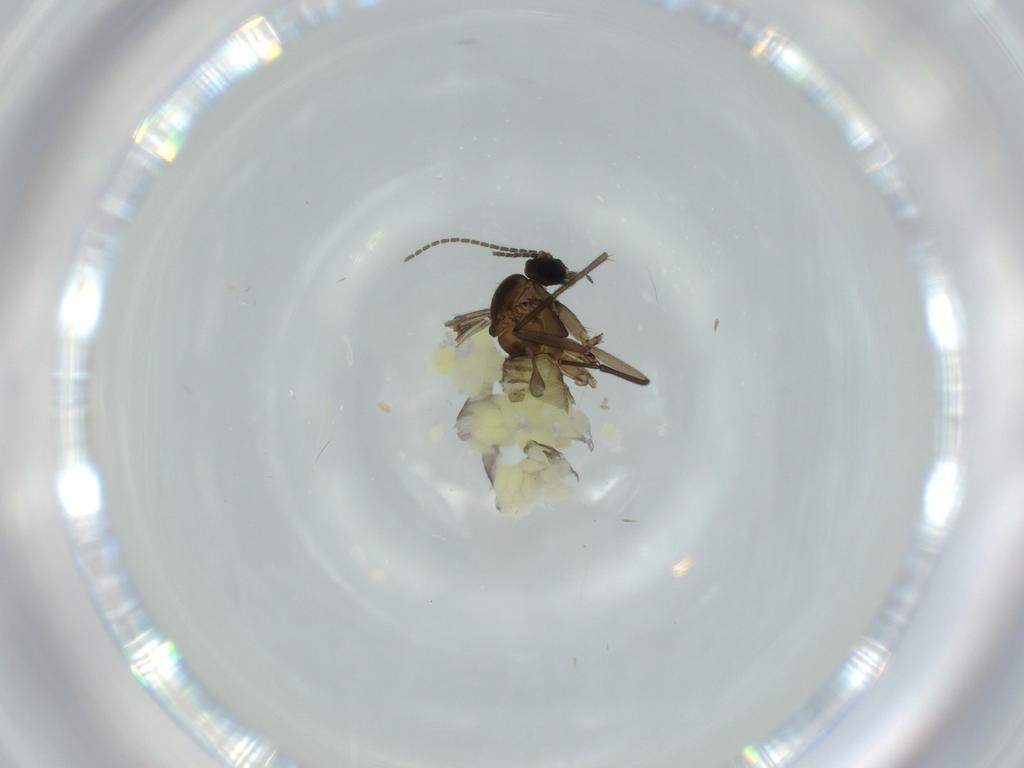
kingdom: Animalia
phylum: Arthropoda
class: Insecta
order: Diptera
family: Sciaridae
